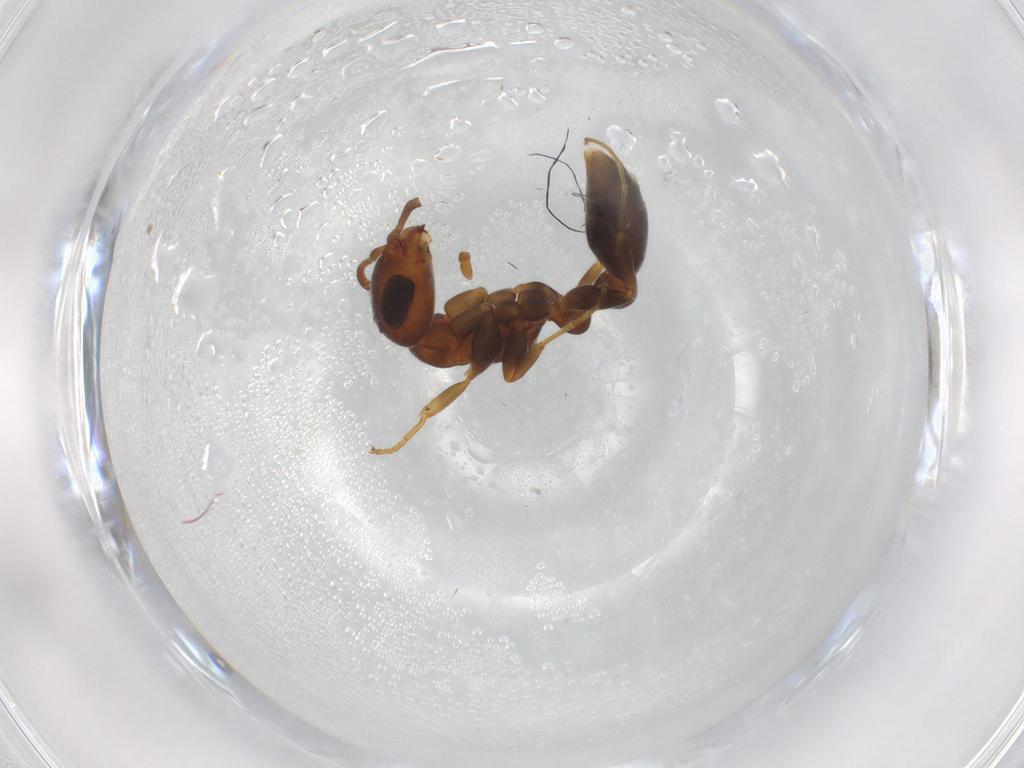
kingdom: Animalia
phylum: Arthropoda
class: Insecta
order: Hymenoptera
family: Formicidae
